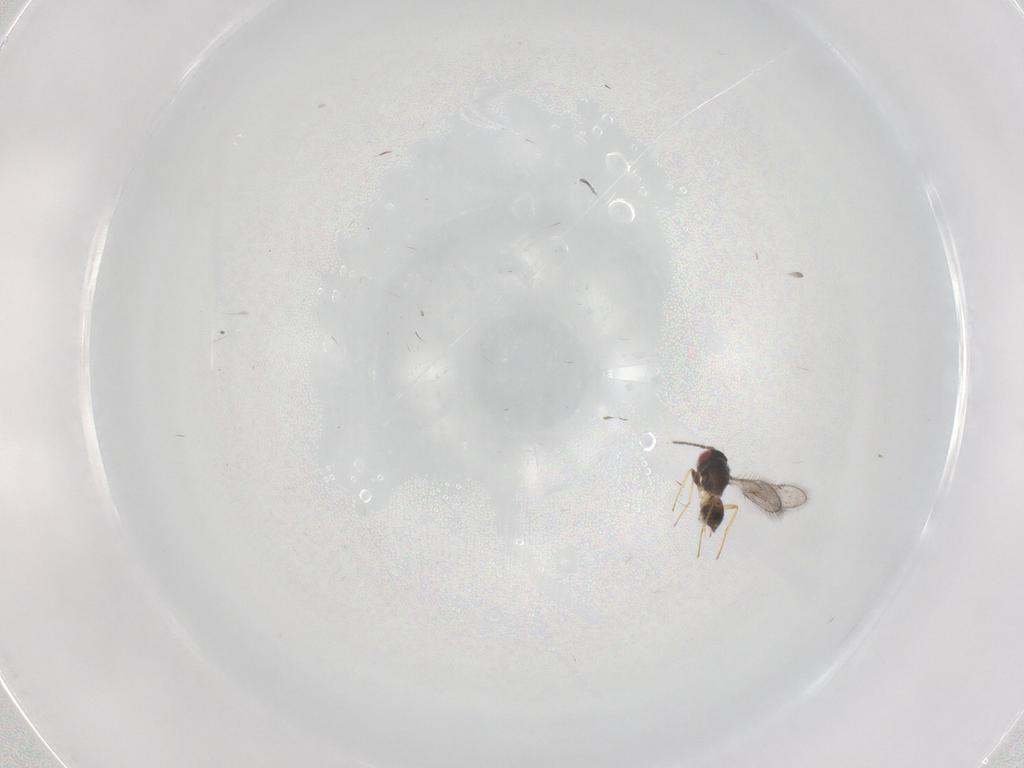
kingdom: Animalia
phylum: Arthropoda
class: Insecta
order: Hymenoptera
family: Eulophidae
